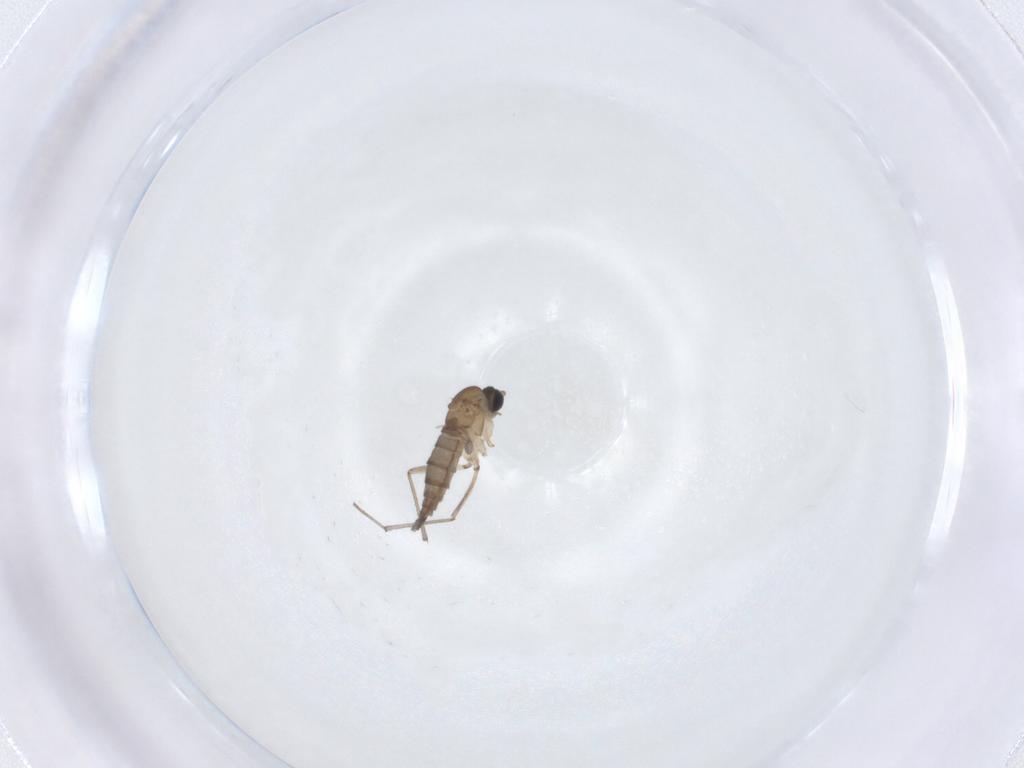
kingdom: Animalia
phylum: Arthropoda
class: Insecta
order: Diptera
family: Sciaridae
